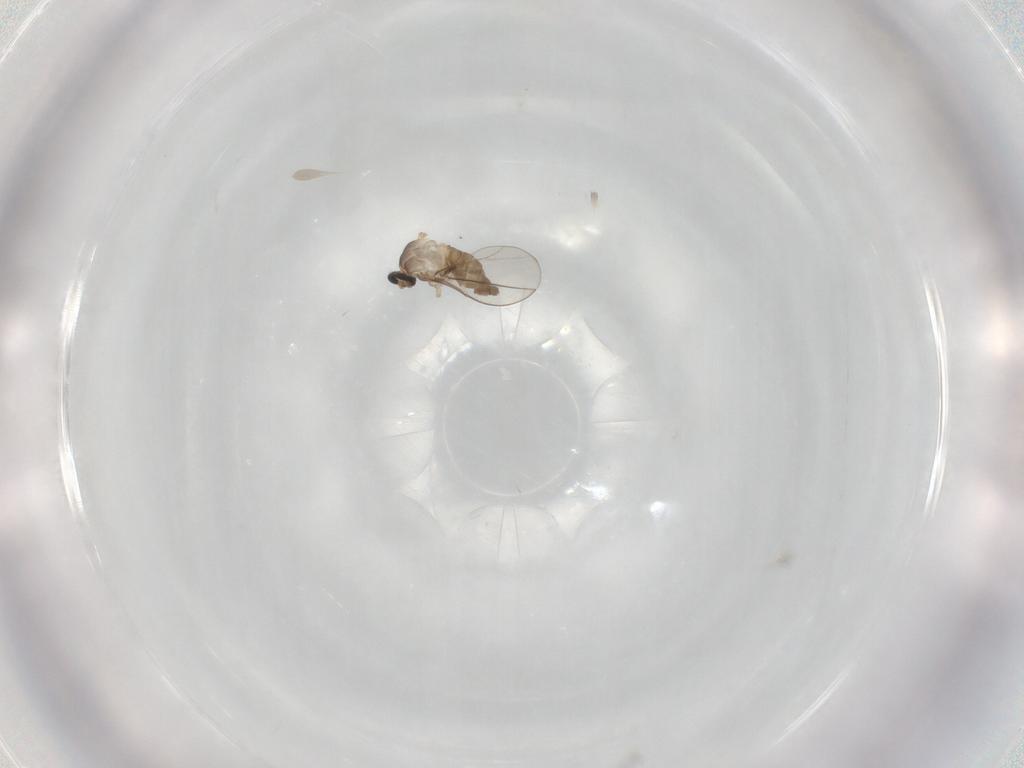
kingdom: Animalia
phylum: Arthropoda
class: Insecta
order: Diptera
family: Cecidomyiidae
